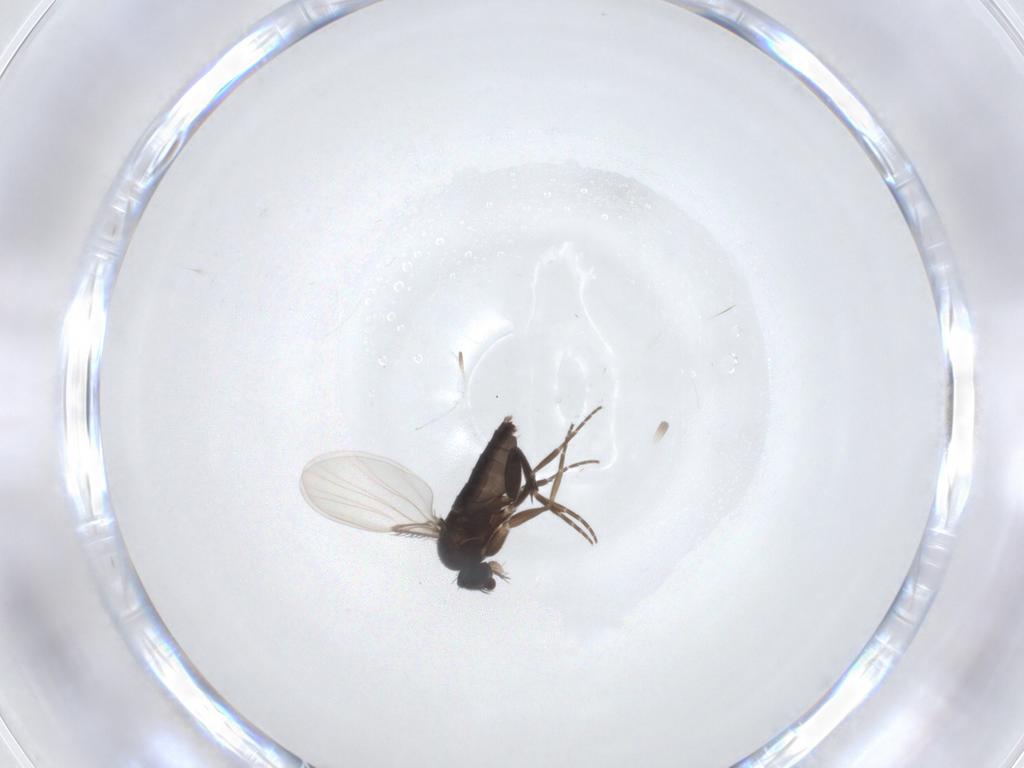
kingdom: Animalia
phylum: Arthropoda
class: Insecta
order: Diptera
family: Phoridae
